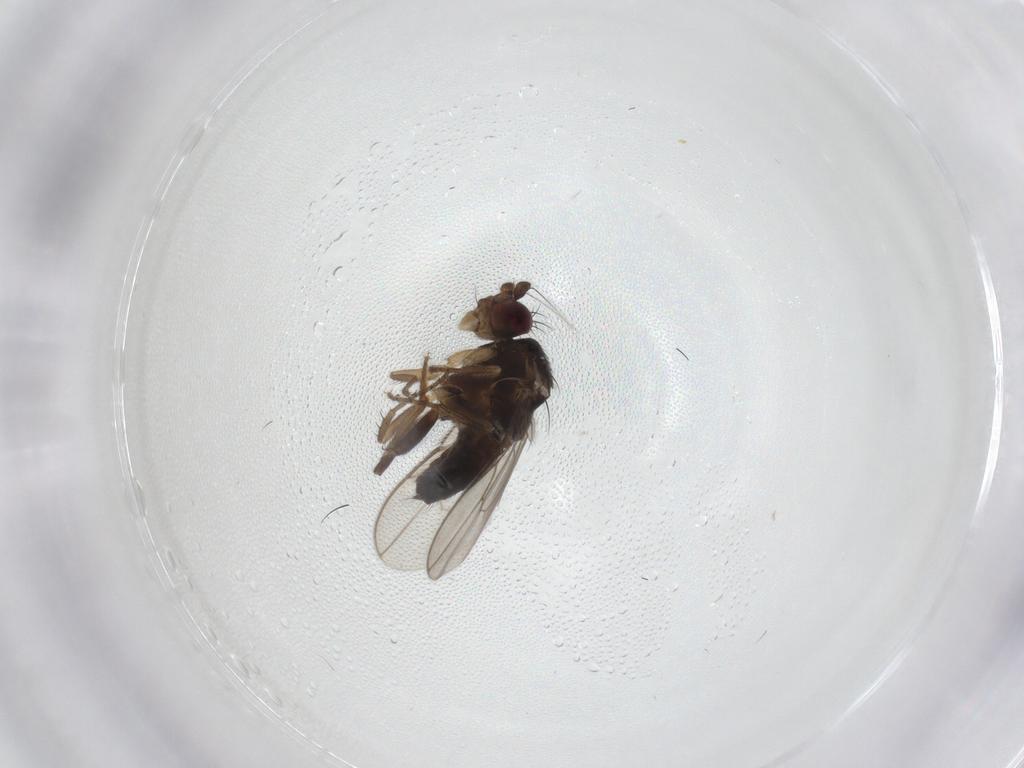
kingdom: Animalia
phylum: Arthropoda
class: Insecta
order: Diptera
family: Sphaeroceridae
